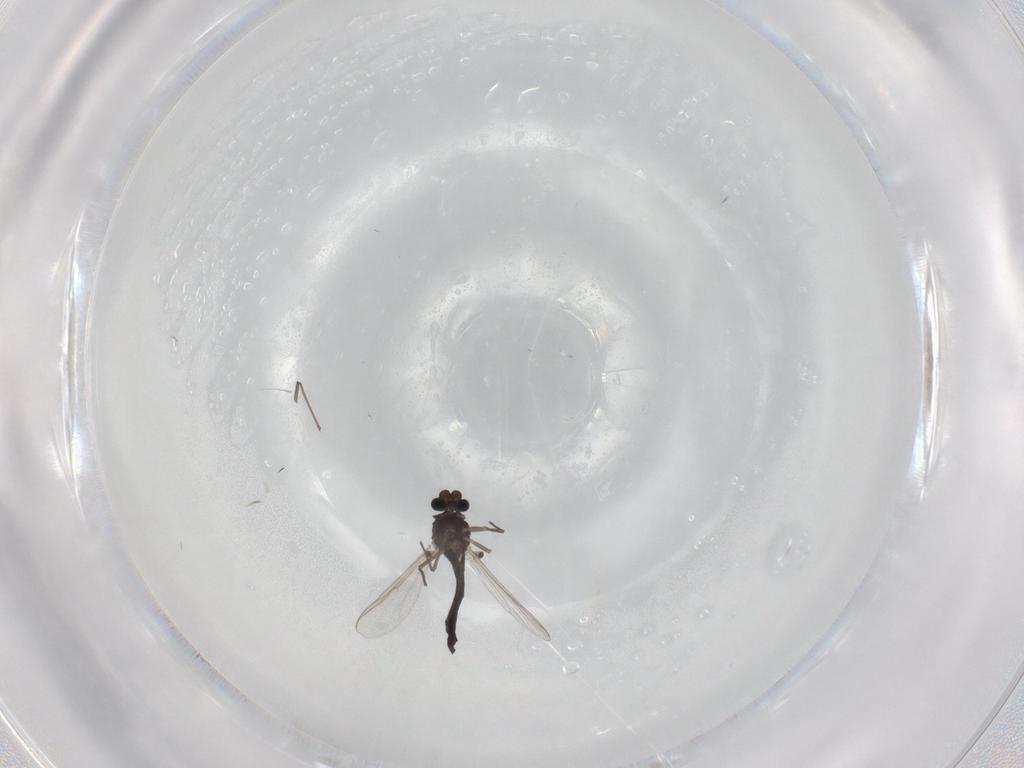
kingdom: Animalia
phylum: Arthropoda
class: Insecta
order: Diptera
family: Chironomidae
